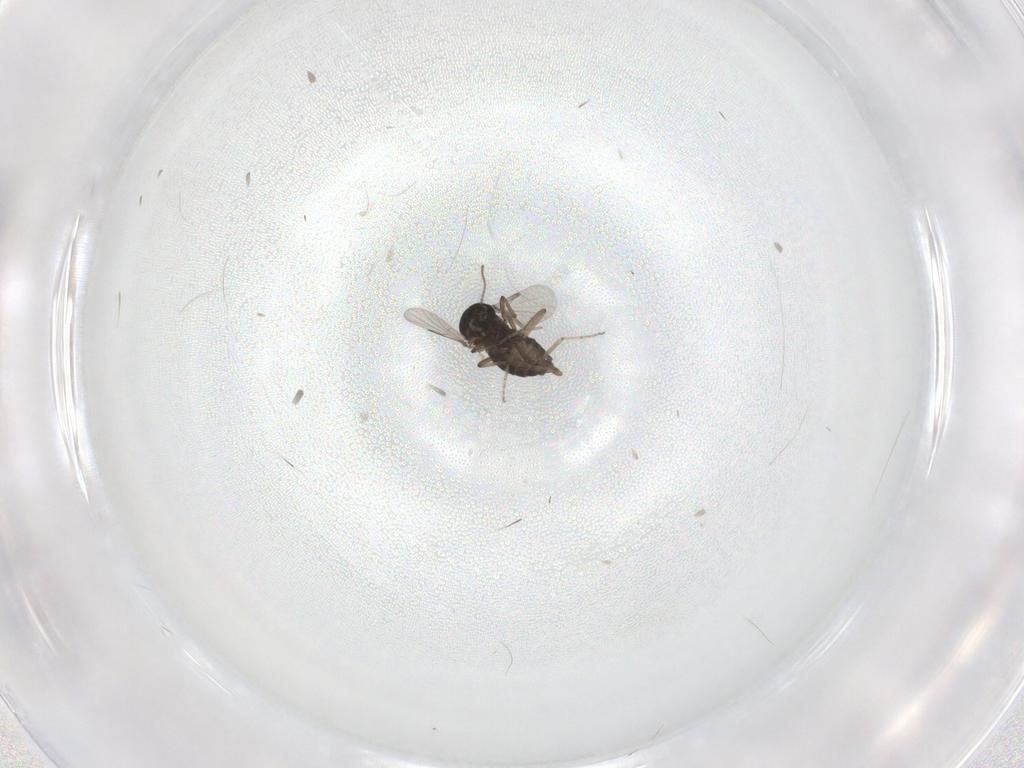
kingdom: Animalia
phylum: Arthropoda
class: Insecta
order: Diptera
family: Ceratopogonidae
